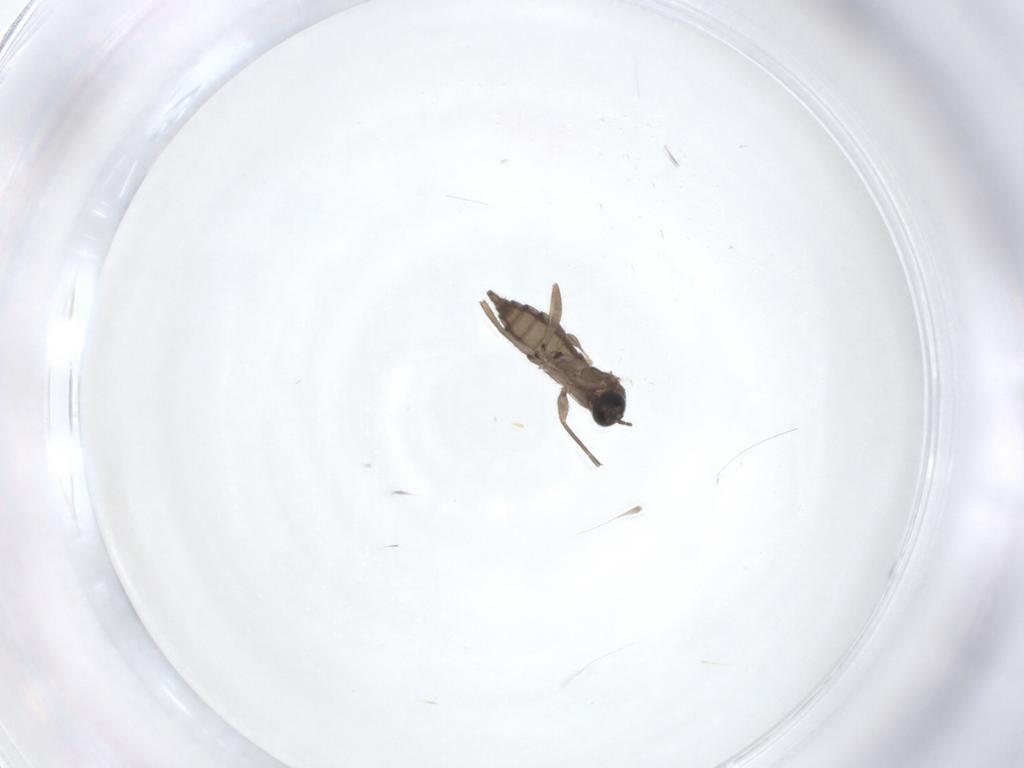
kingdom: Animalia
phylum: Arthropoda
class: Insecta
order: Diptera
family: Sciaridae
